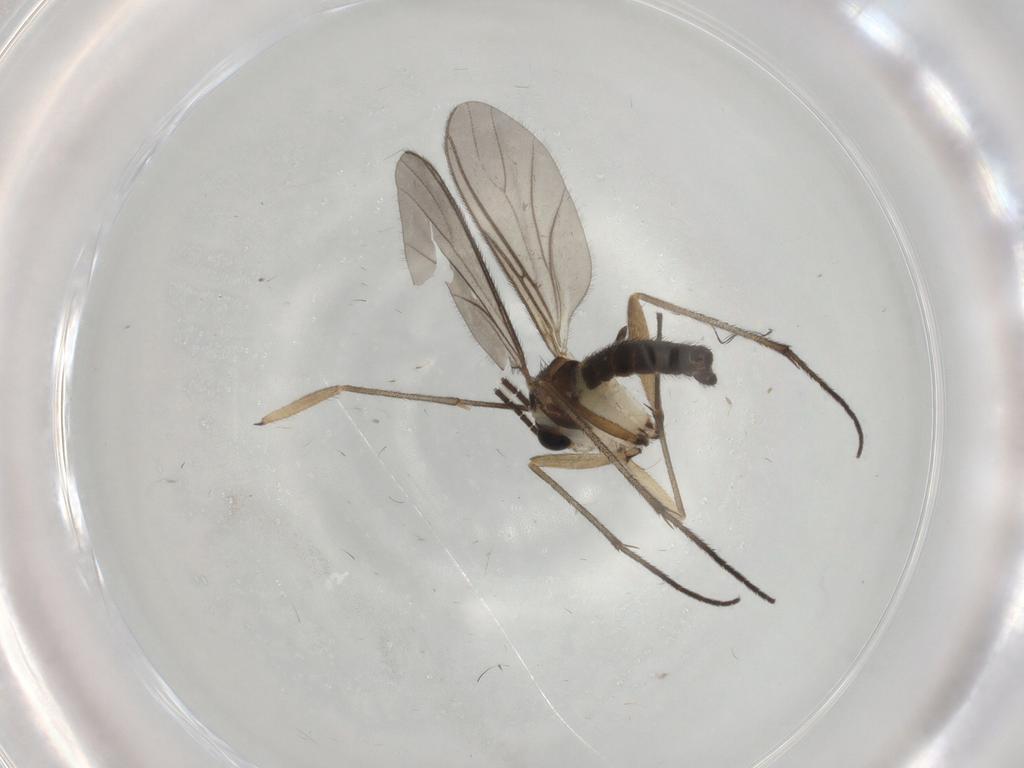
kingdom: Animalia
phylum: Arthropoda
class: Insecta
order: Diptera
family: Sciaridae
